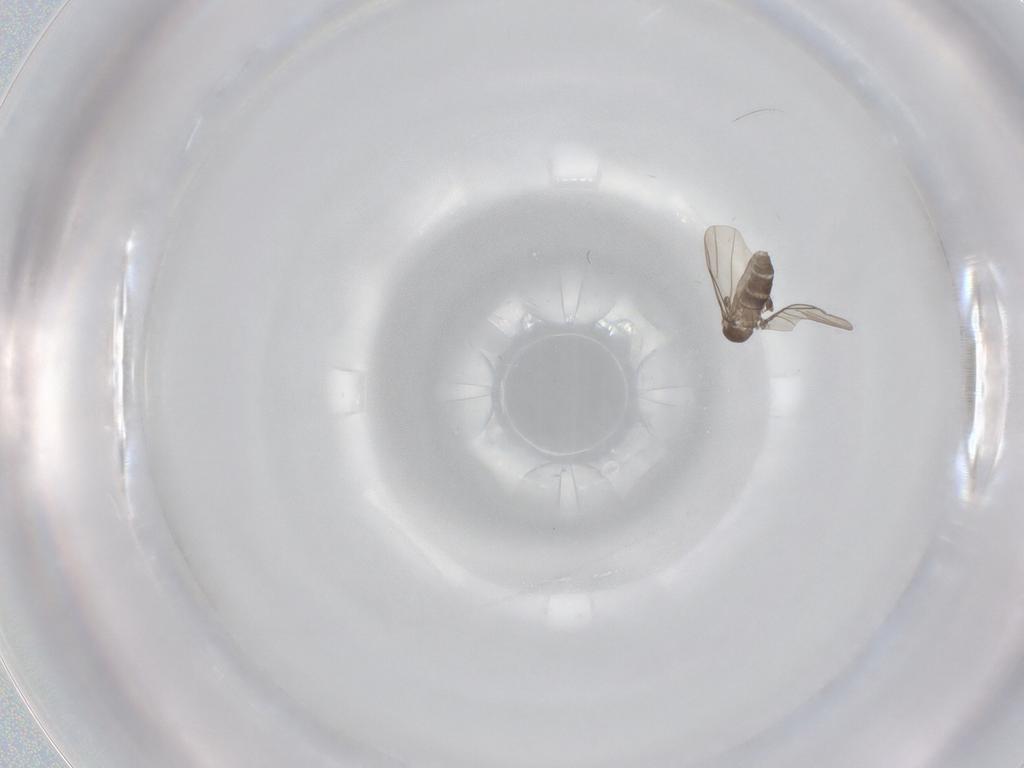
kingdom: Animalia
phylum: Arthropoda
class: Insecta
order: Diptera
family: Phoridae
